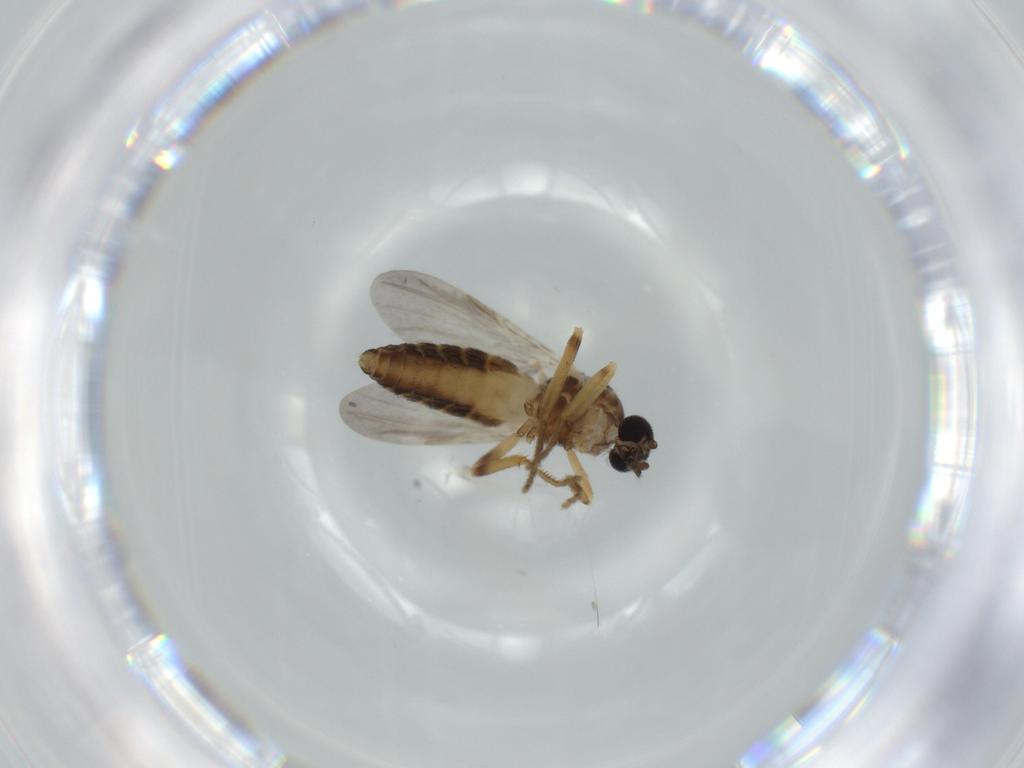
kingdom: Animalia
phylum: Arthropoda
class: Insecta
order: Diptera
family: Ceratopogonidae
